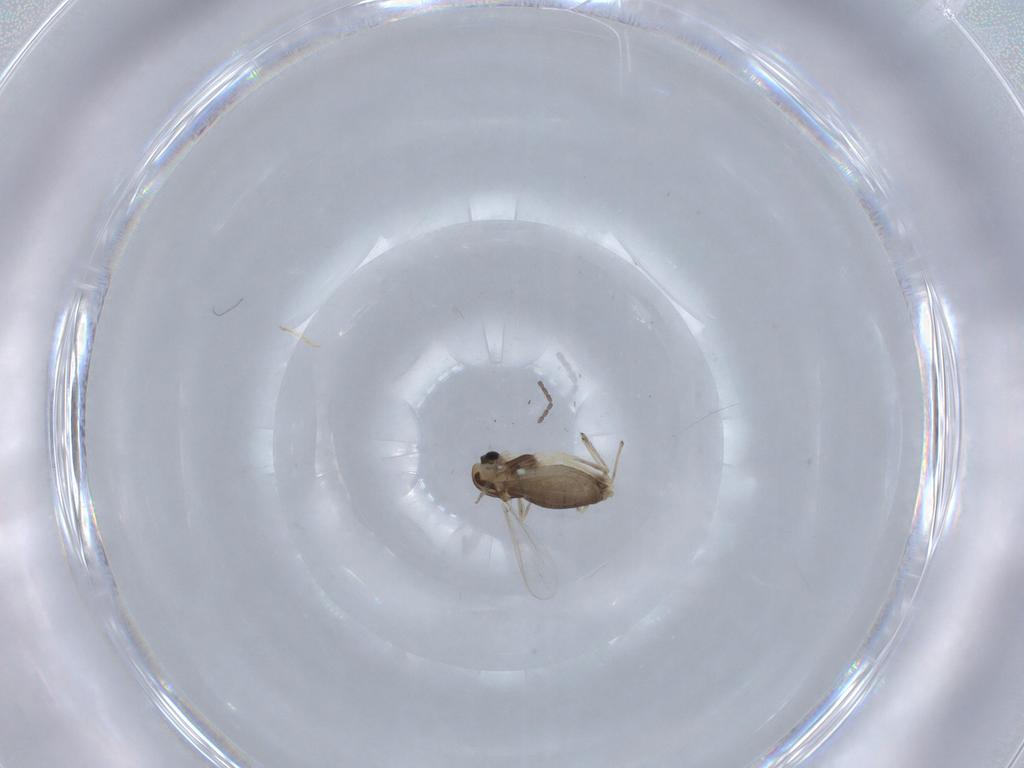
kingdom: Animalia
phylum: Arthropoda
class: Insecta
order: Diptera
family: Chironomidae
